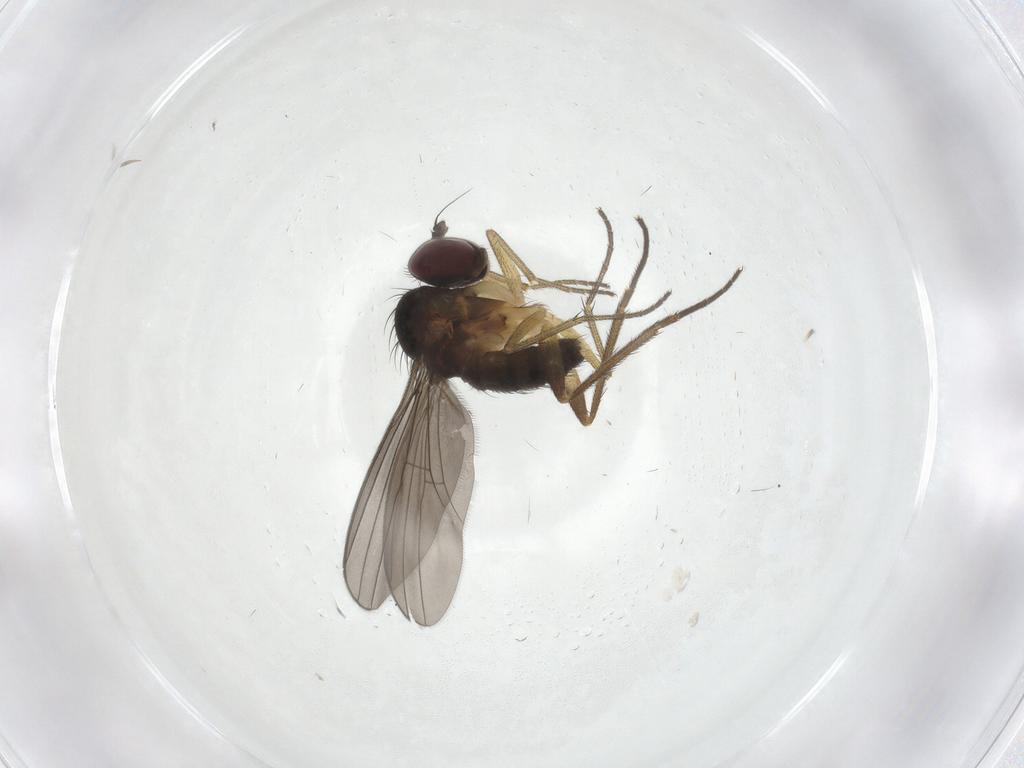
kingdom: Animalia
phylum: Arthropoda
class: Insecta
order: Diptera
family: Dolichopodidae
